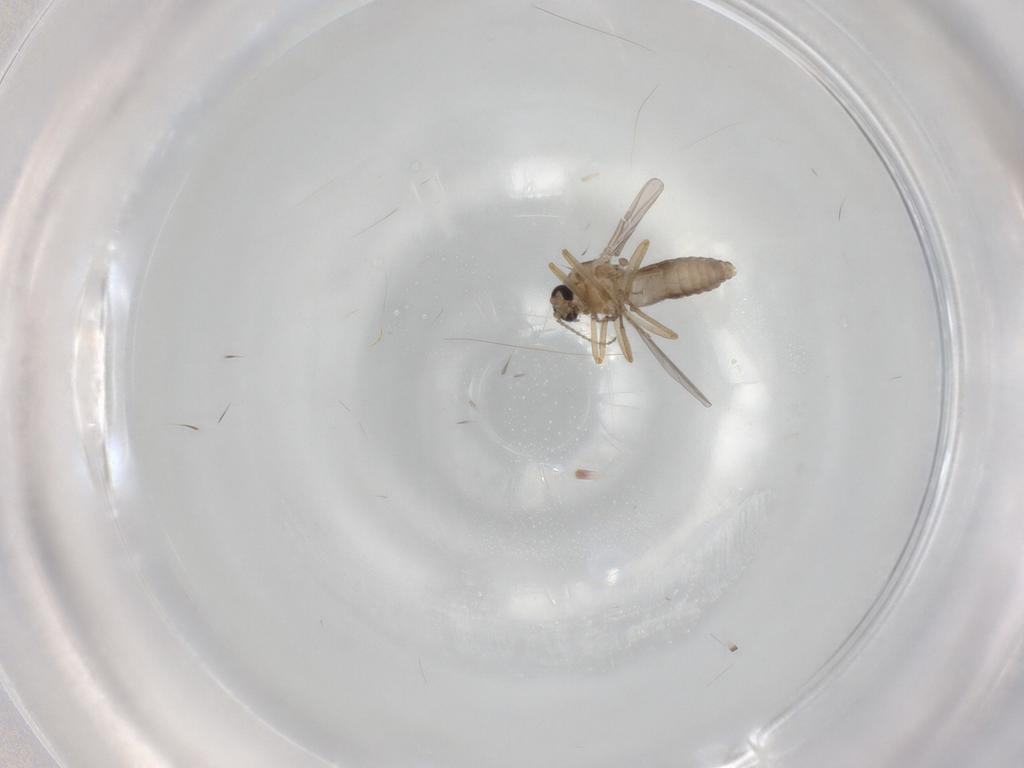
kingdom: Animalia
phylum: Arthropoda
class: Insecta
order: Diptera
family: Ceratopogonidae
